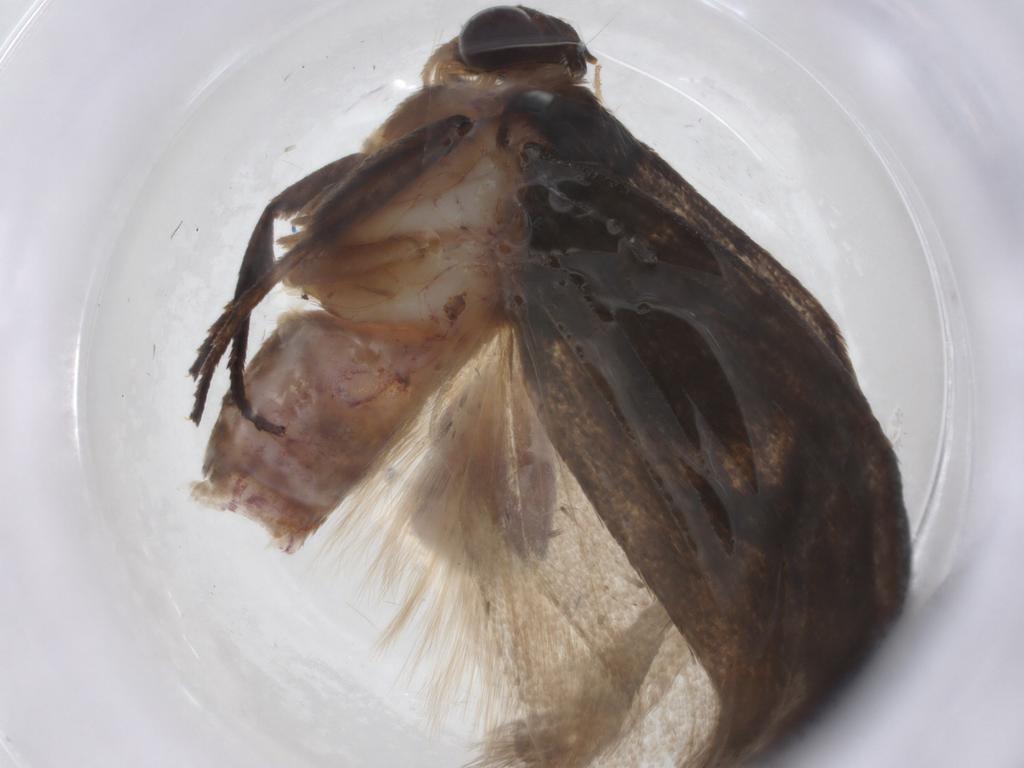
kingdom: Animalia
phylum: Arthropoda
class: Insecta
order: Lepidoptera
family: Oecophoridae
